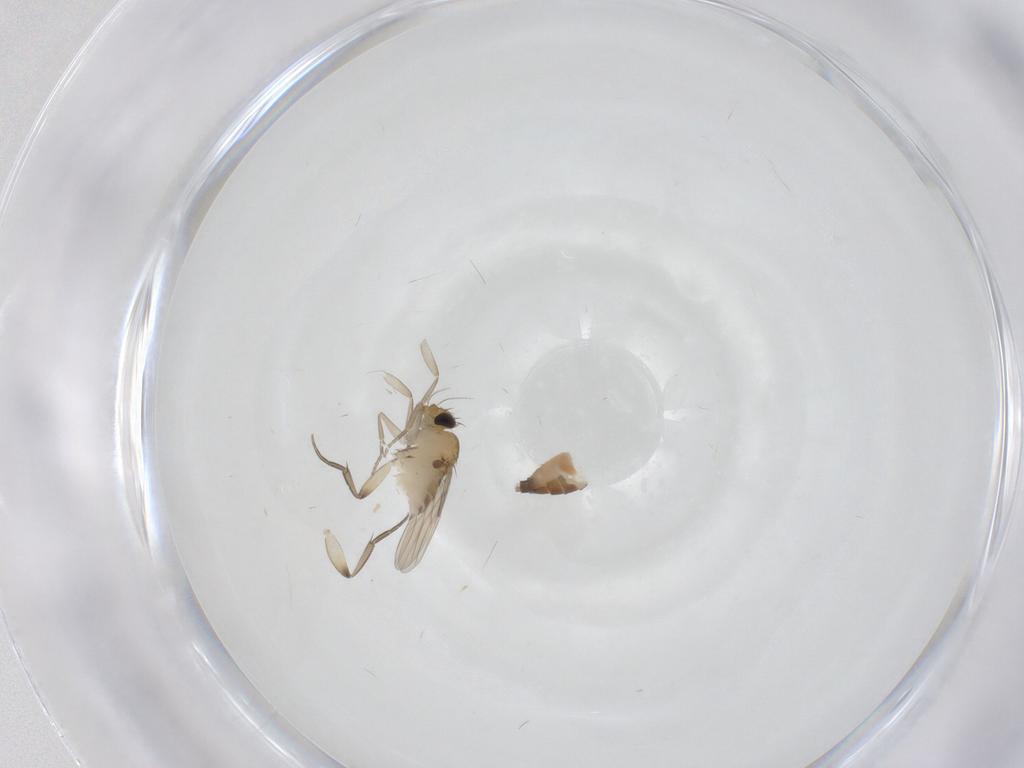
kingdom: Animalia
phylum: Arthropoda
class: Insecta
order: Diptera
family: Phoridae
